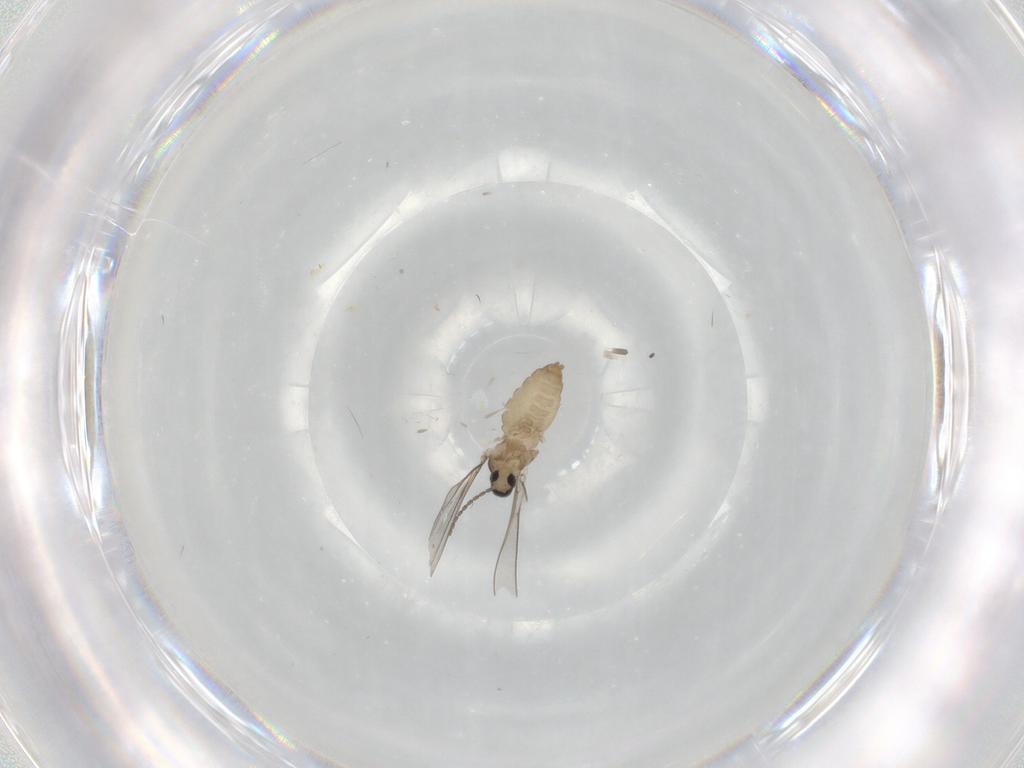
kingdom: Animalia
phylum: Arthropoda
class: Insecta
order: Diptera
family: Cecidomyiidae
